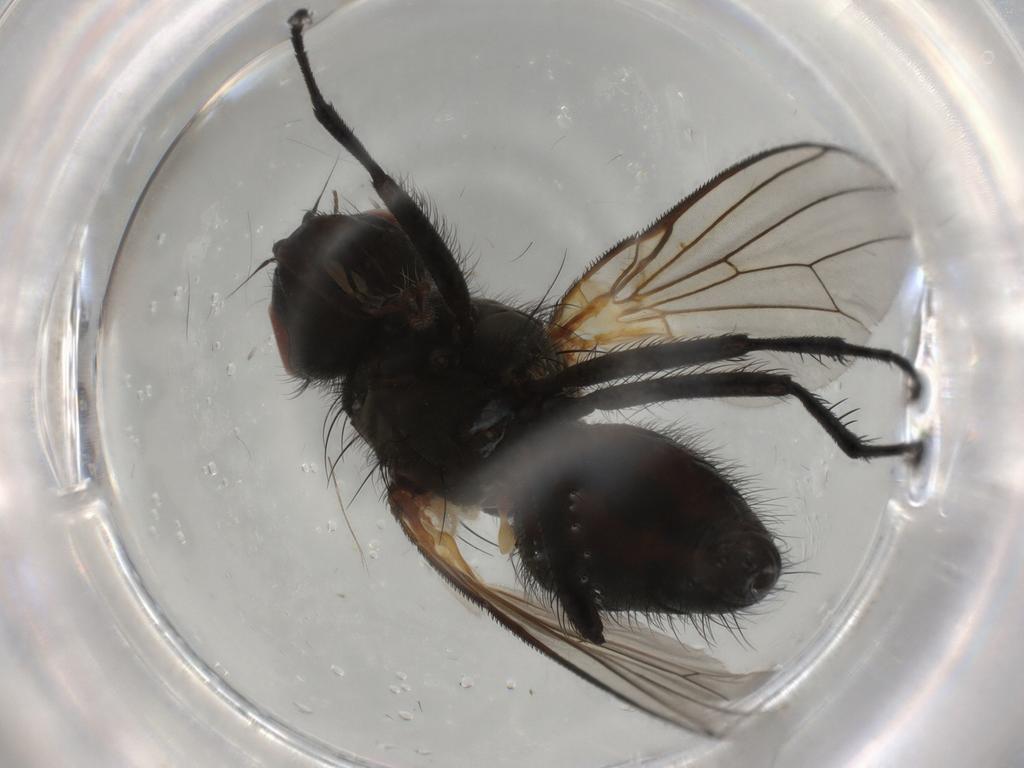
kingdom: Animalia
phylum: Arthropoda
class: Insecta
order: Diptera
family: Anthomyiidae
